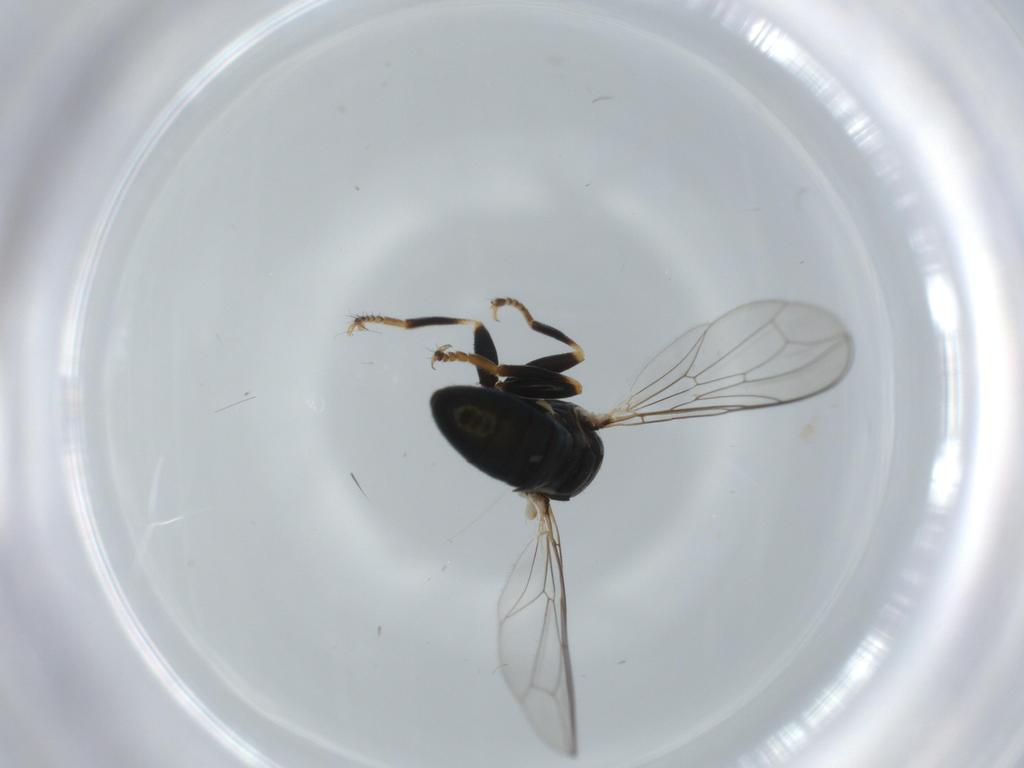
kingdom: Animalia
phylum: Arthropoda
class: Insecta
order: Diptera
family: Pipunculidae
